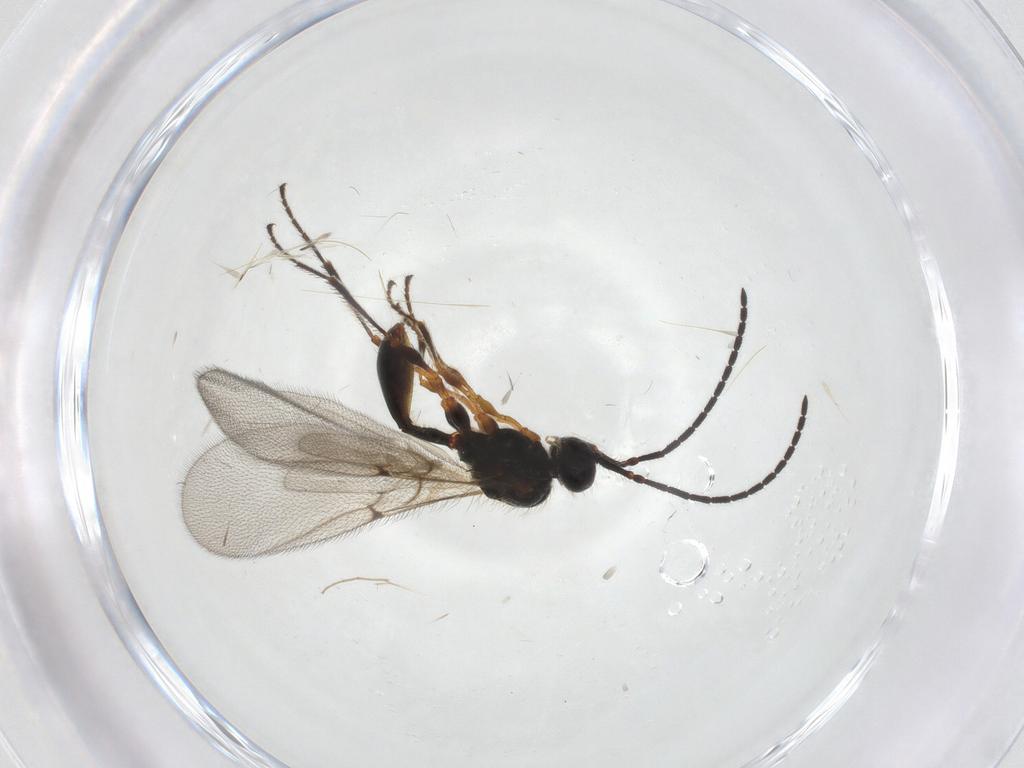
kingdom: Animalia
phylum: Arthropoda
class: Insecta
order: Hymenoptera
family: Diapriidae
